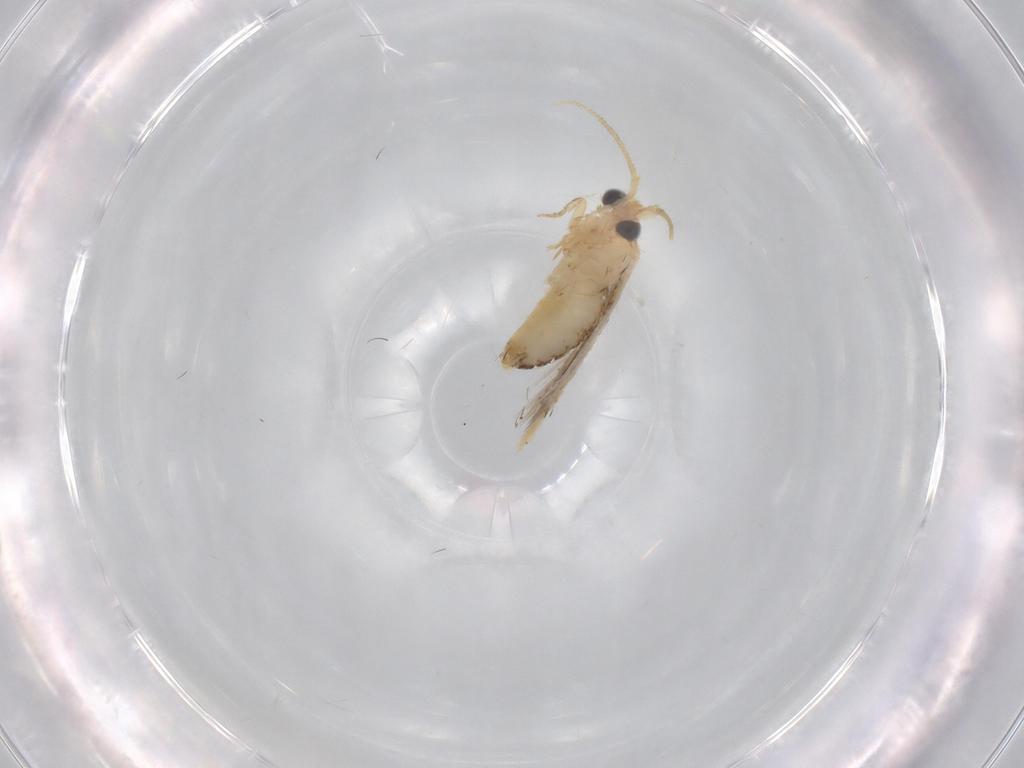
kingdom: Animalia
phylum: Arthropoda
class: Insecta
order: Lepidoptera
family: Nepticulidae
